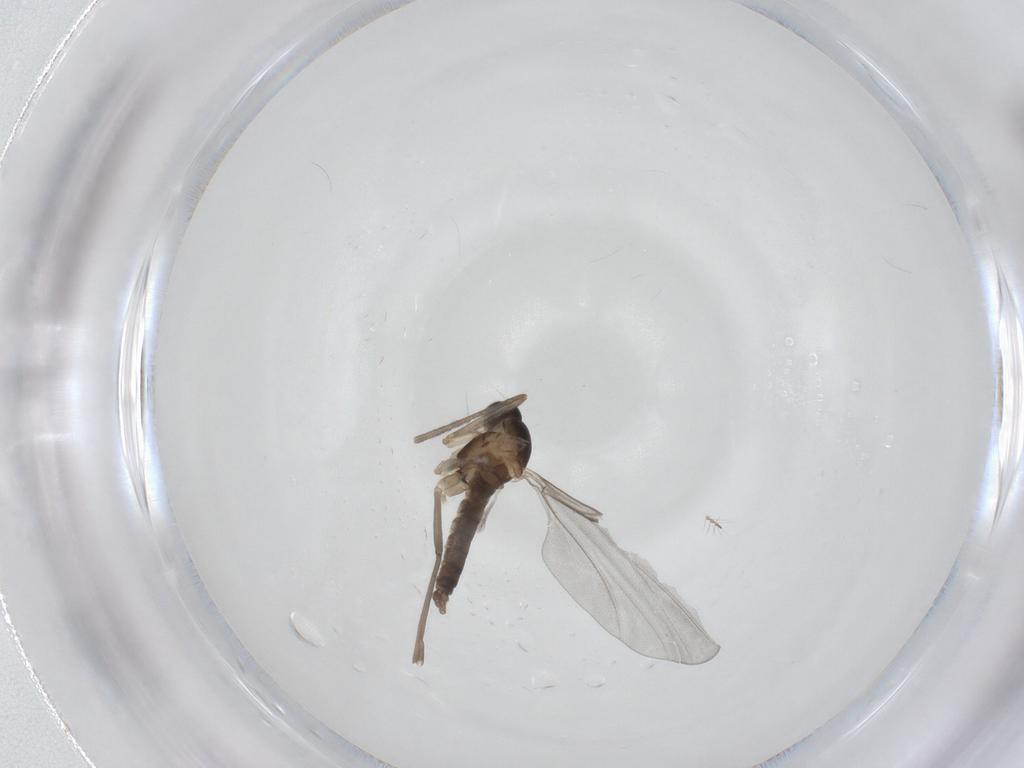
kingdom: Animalia
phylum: Arthropoda
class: Insecta
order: Diptera
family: Cecidomyiidae
